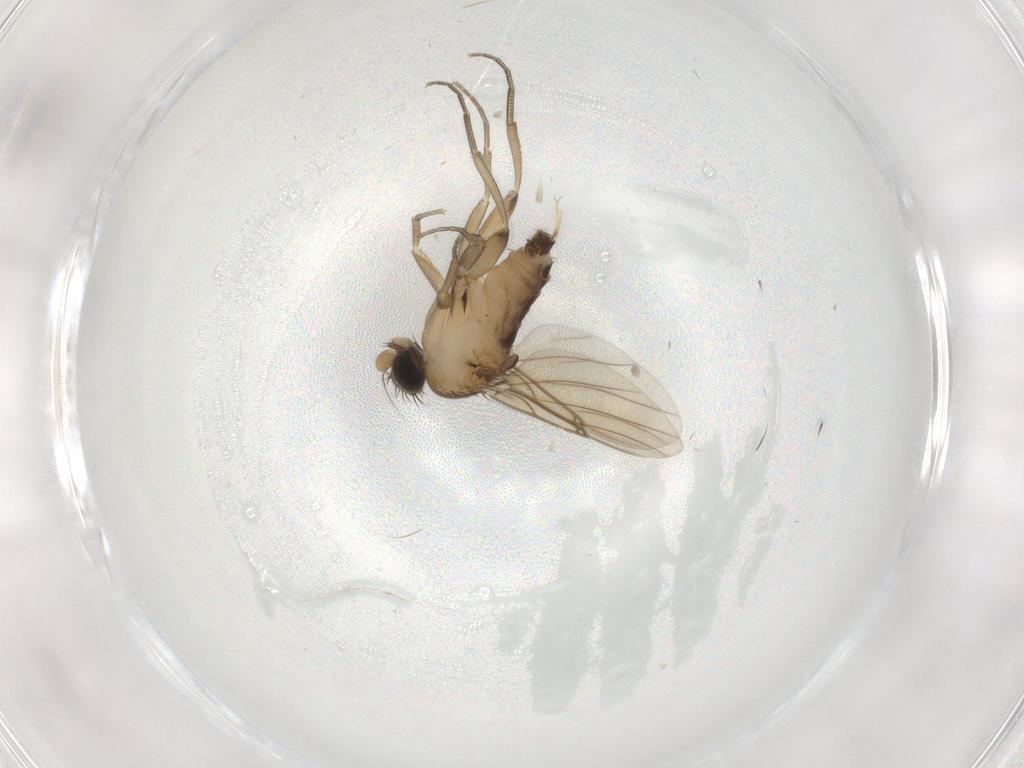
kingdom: Animalia
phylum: Arthropoda
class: Insecta
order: Diptera
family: Phoridae
